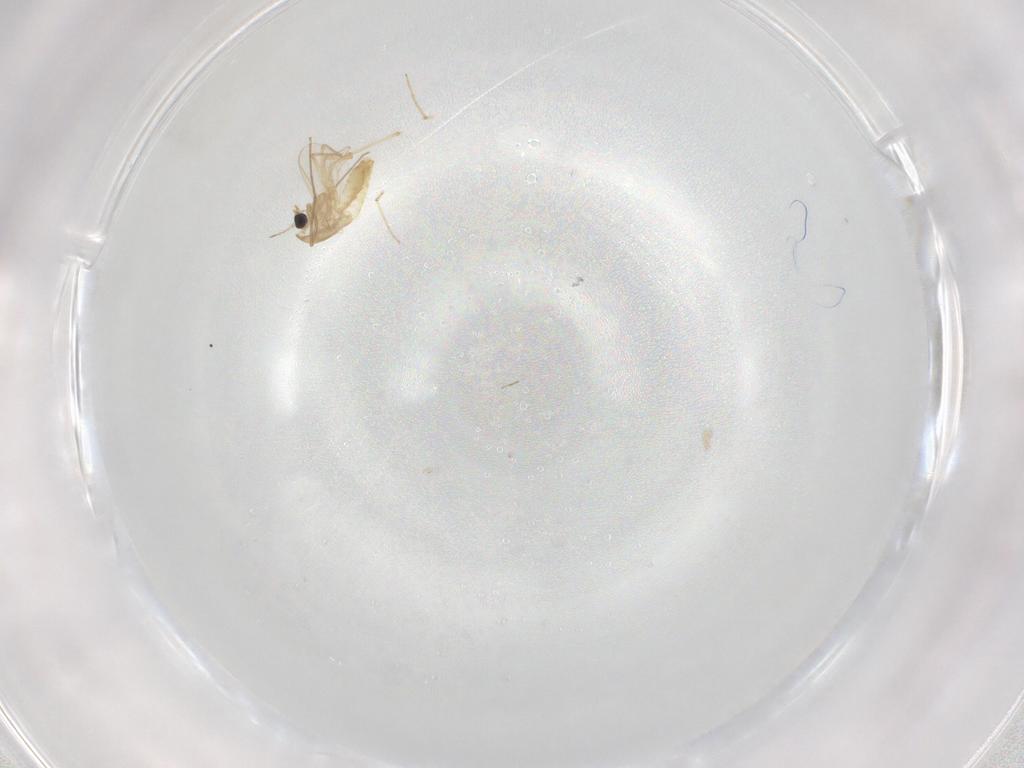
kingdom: Animalia
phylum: Arthropoda
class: Insecta
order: Diptera
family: Chironomidae
